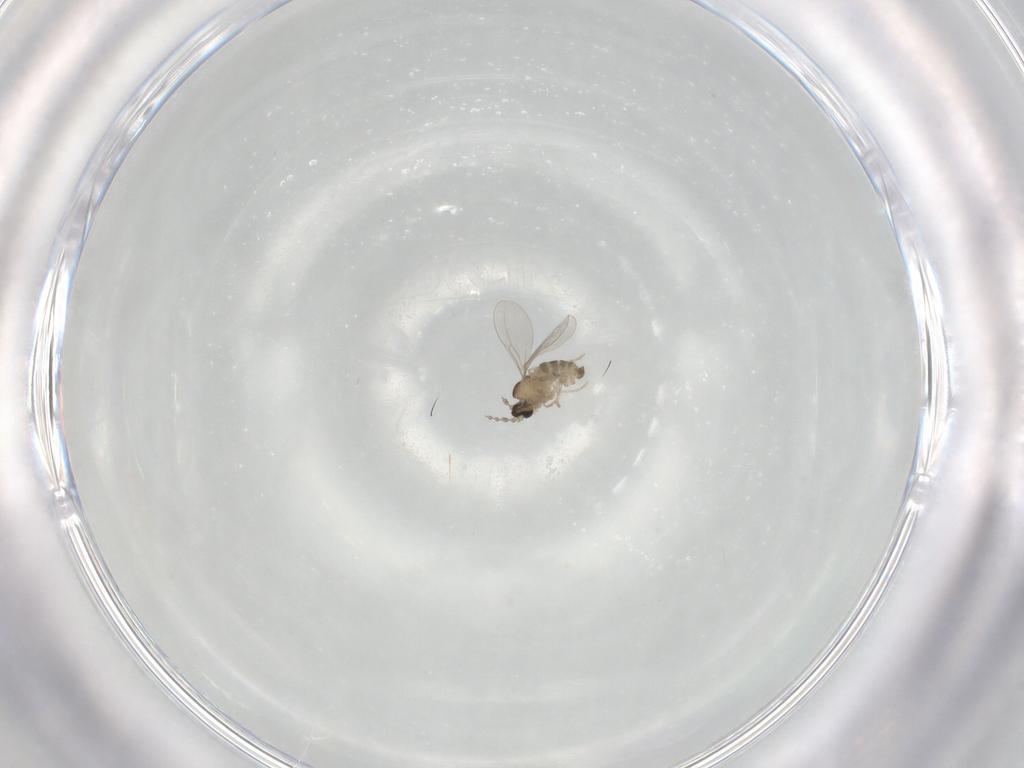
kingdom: Animalia
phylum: Arthropoda
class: Insecta
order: Diptera
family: Cecidomyiidae
